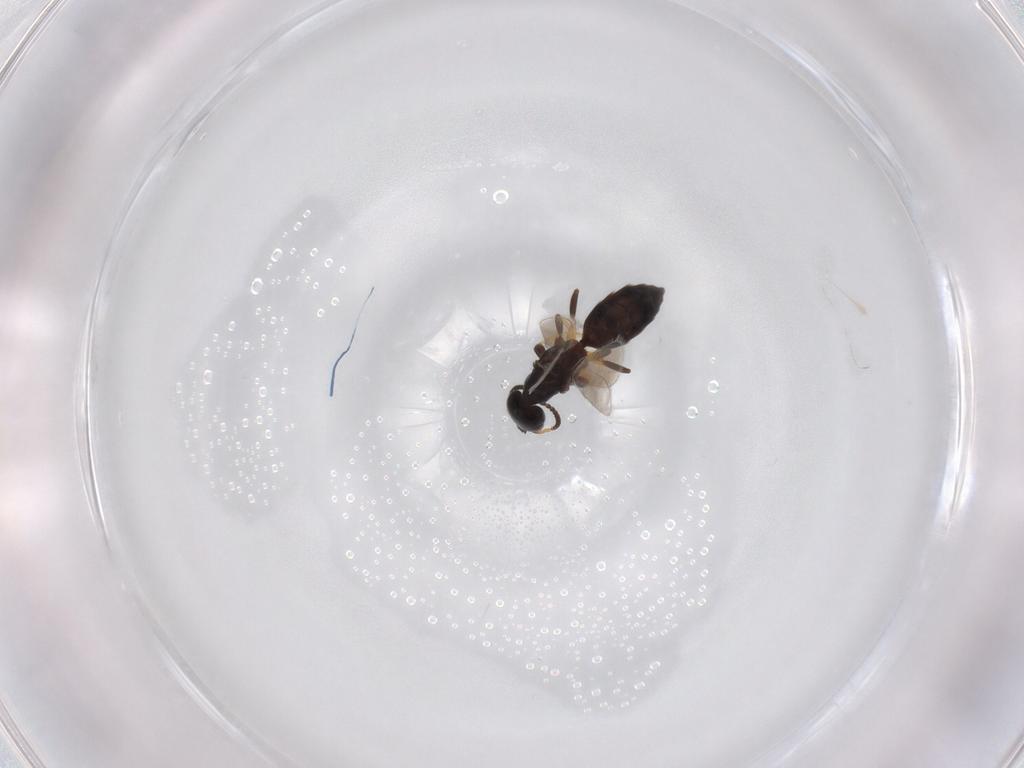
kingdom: Animalia
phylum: Arthropoda
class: Insecta
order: Hymenoptera
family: Bethylidae
